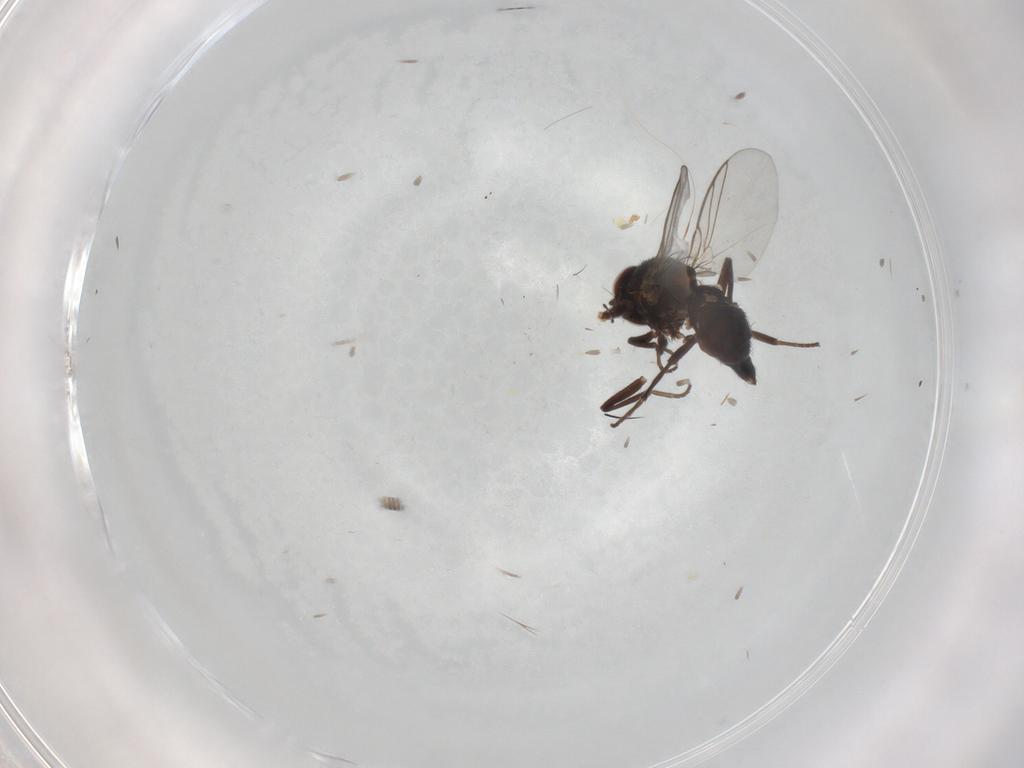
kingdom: Animalia
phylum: Arthropoda
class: Insecta
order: Diptera
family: Agromyzidae
